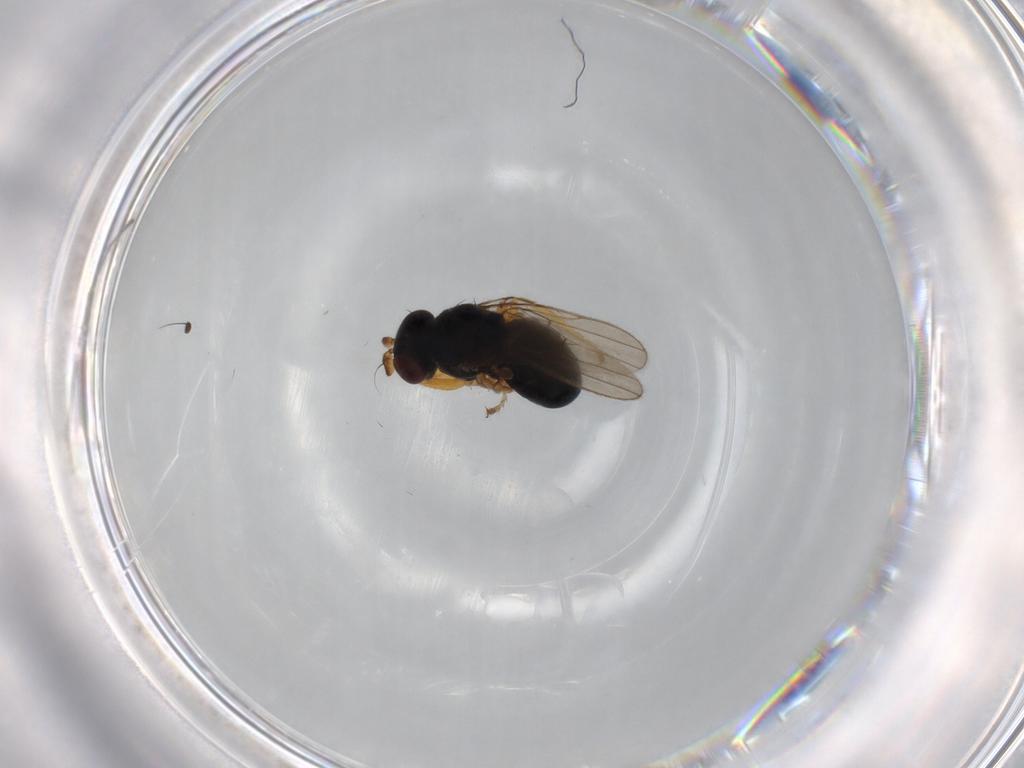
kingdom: Animalia
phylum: Arthropoda
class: Insecta
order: Diptera
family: Ephydridae
